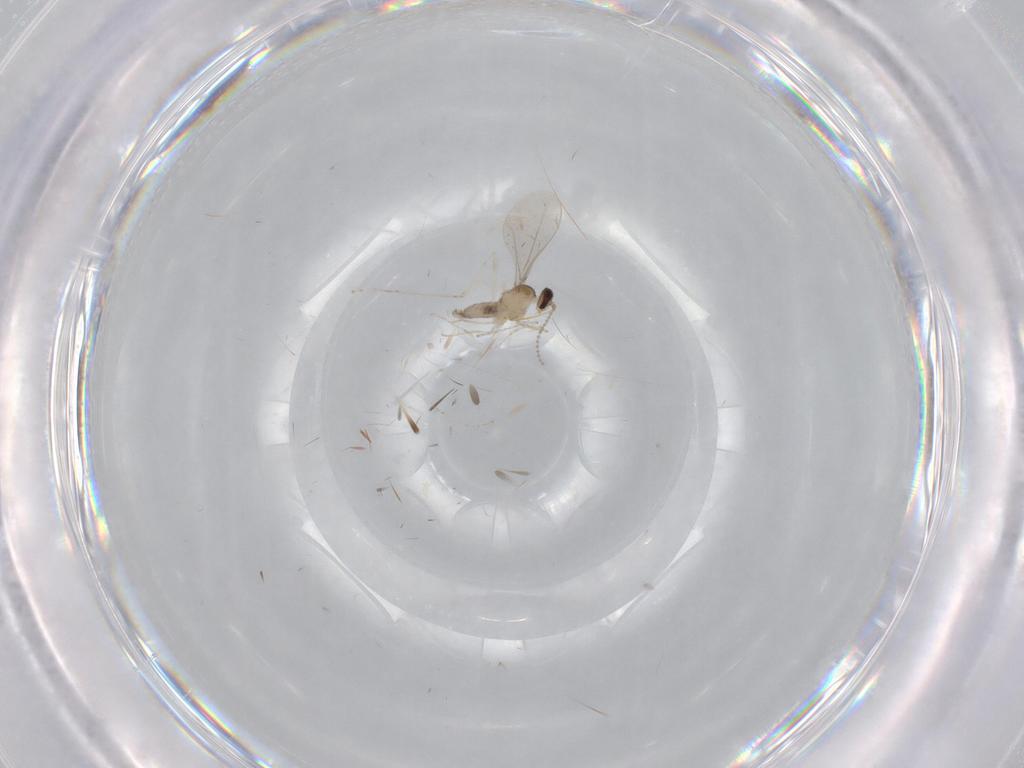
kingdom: Animalia
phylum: Arthropoda
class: Insecta
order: Diptera
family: Cecidomyiidae
